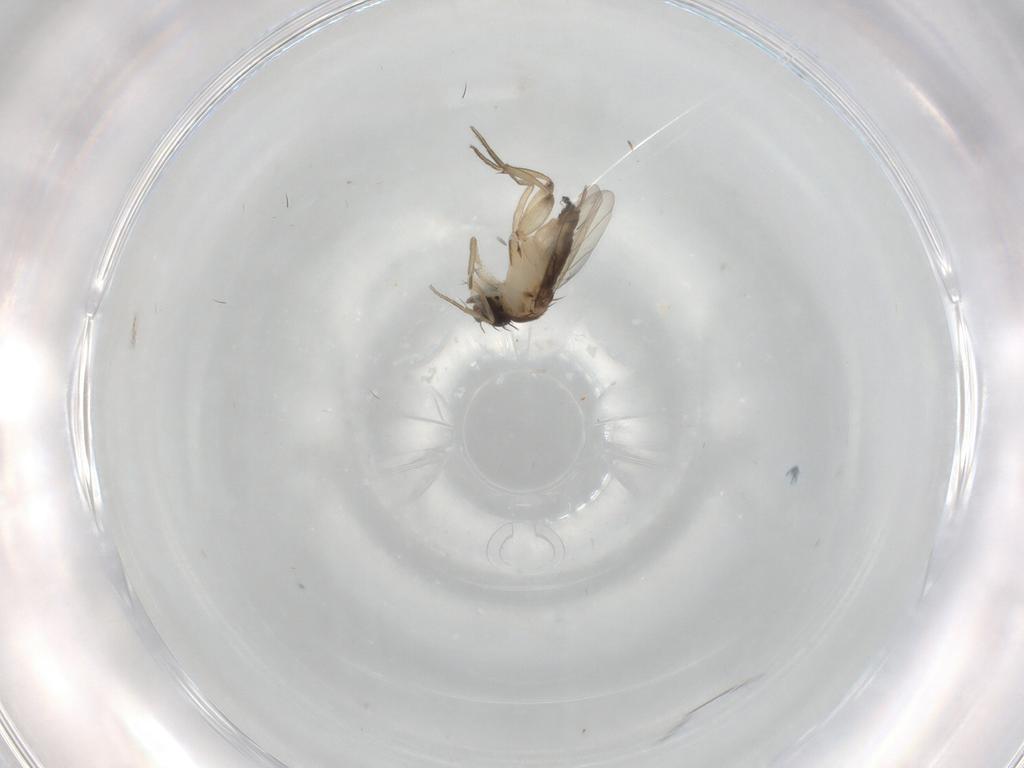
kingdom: Animalia
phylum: Arthropoda
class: Insecta
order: Diptera
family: Phoridae
